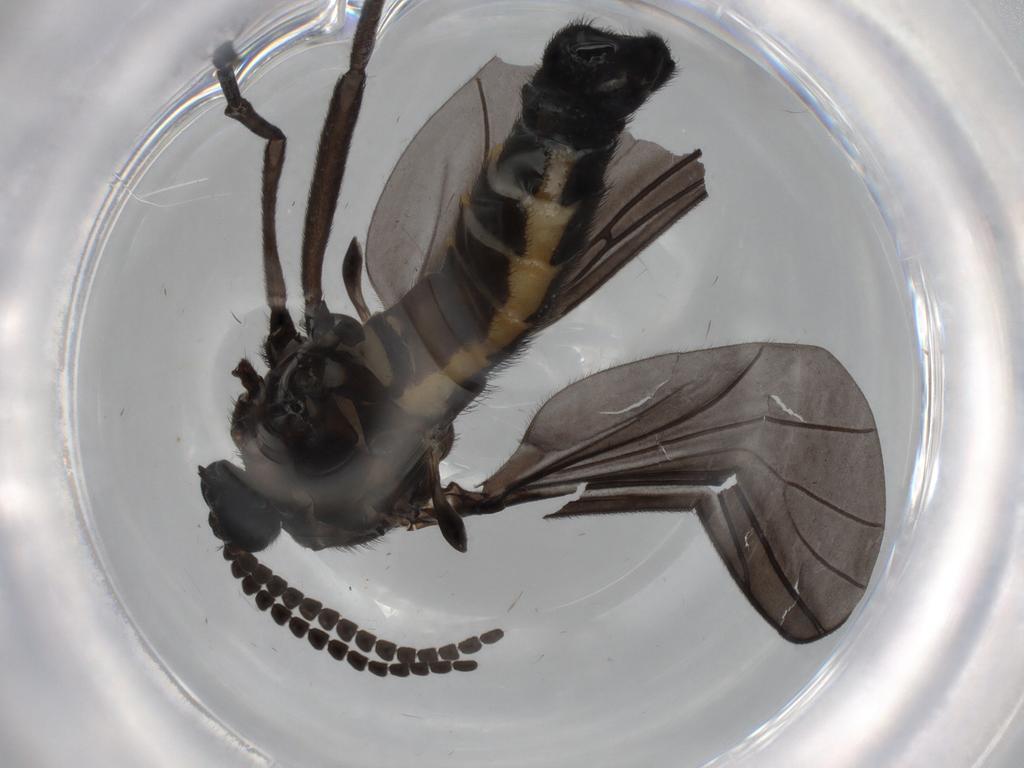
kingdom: Animalia
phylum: Arthropoda
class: Insecta
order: Diptera
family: Sciaridae
